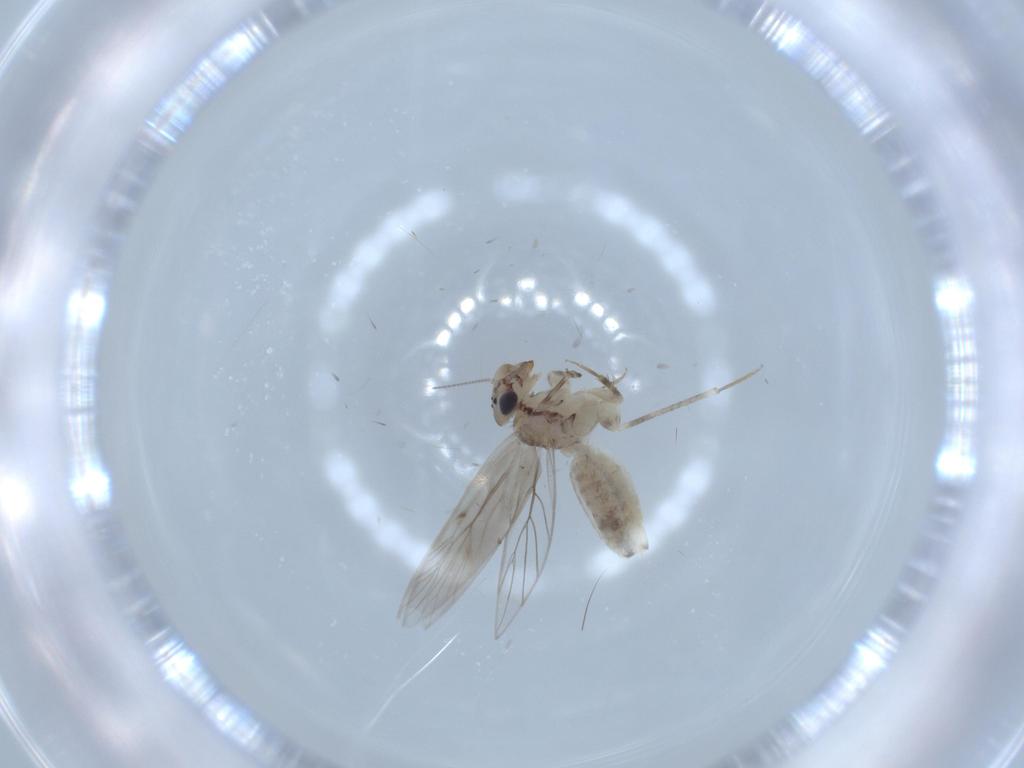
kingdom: Animalia
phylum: Arthropoda
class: Insecta
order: Psocodea
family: Lepidopsocidae
